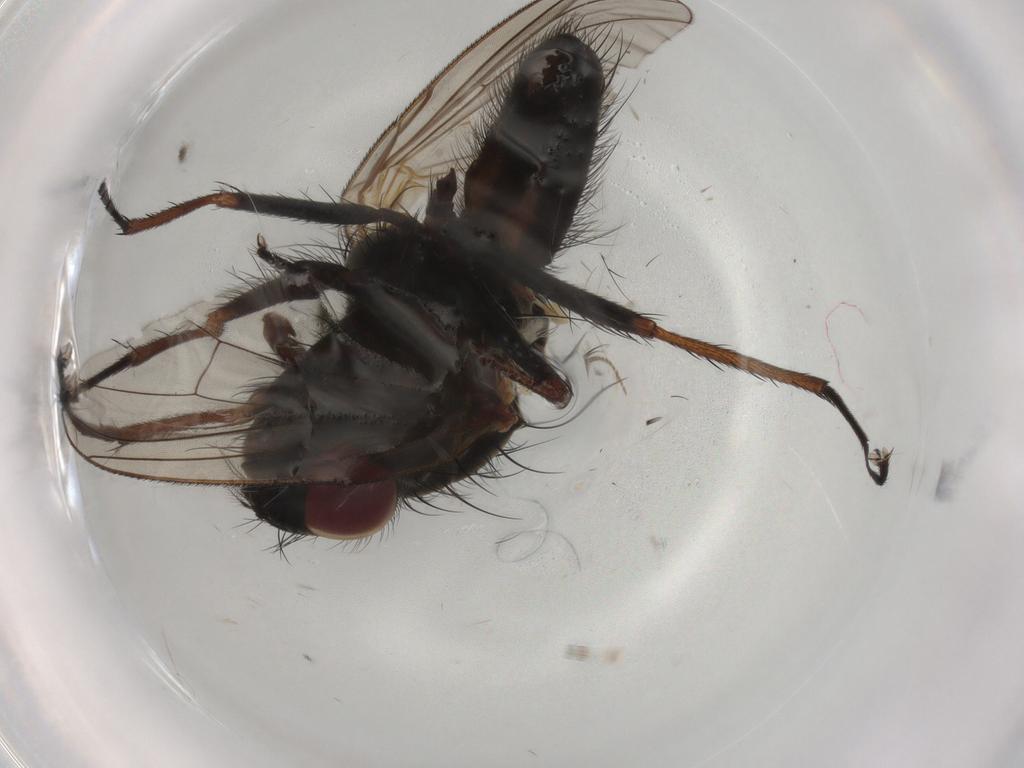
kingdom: Animalia
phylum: Arthropoda
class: Insecta
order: Diptera
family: Anthomyiidae
